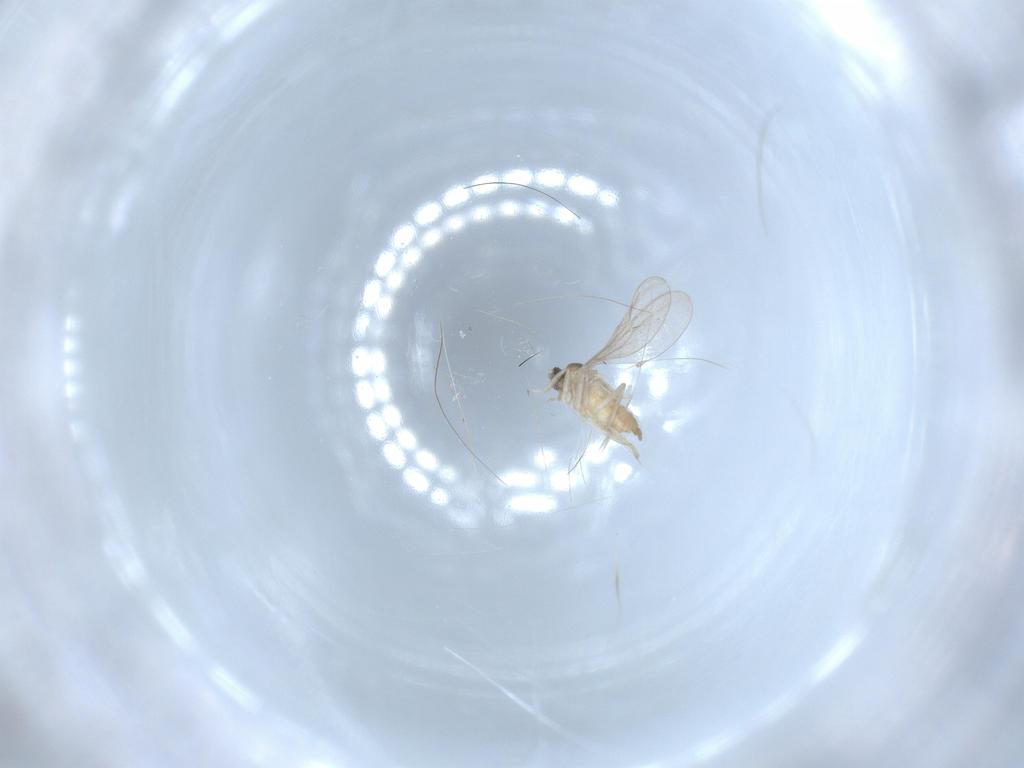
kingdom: Animalia
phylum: Arthropoda
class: Insecta
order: Diptera
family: Cecidomyiidae
